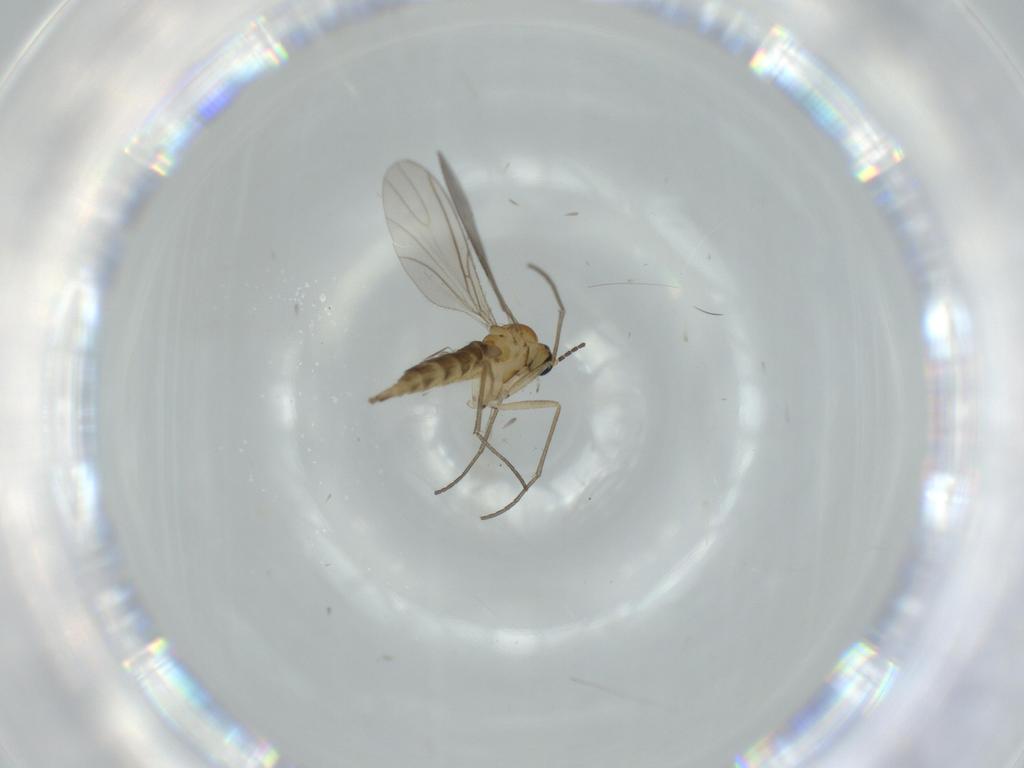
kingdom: Animalia
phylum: Arthropoda
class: Insecta
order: Diptera
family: Sciaridae
